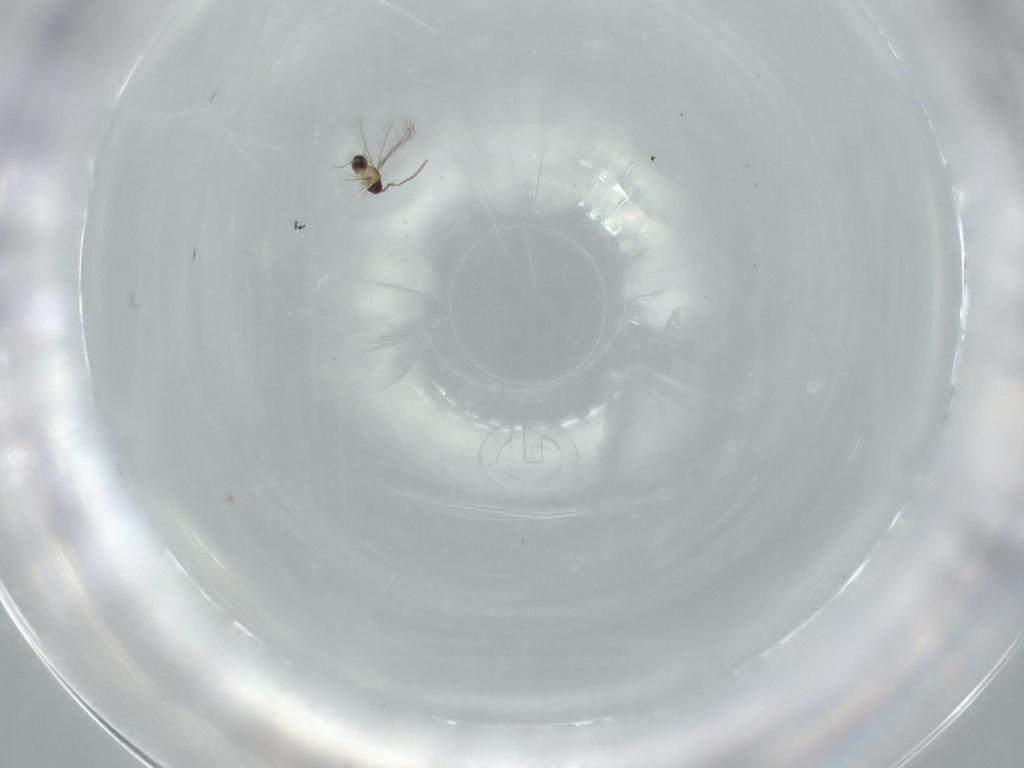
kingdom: Animalia
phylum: Arthropoda
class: Insecta
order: Hymenoptera
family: Mymaridae
